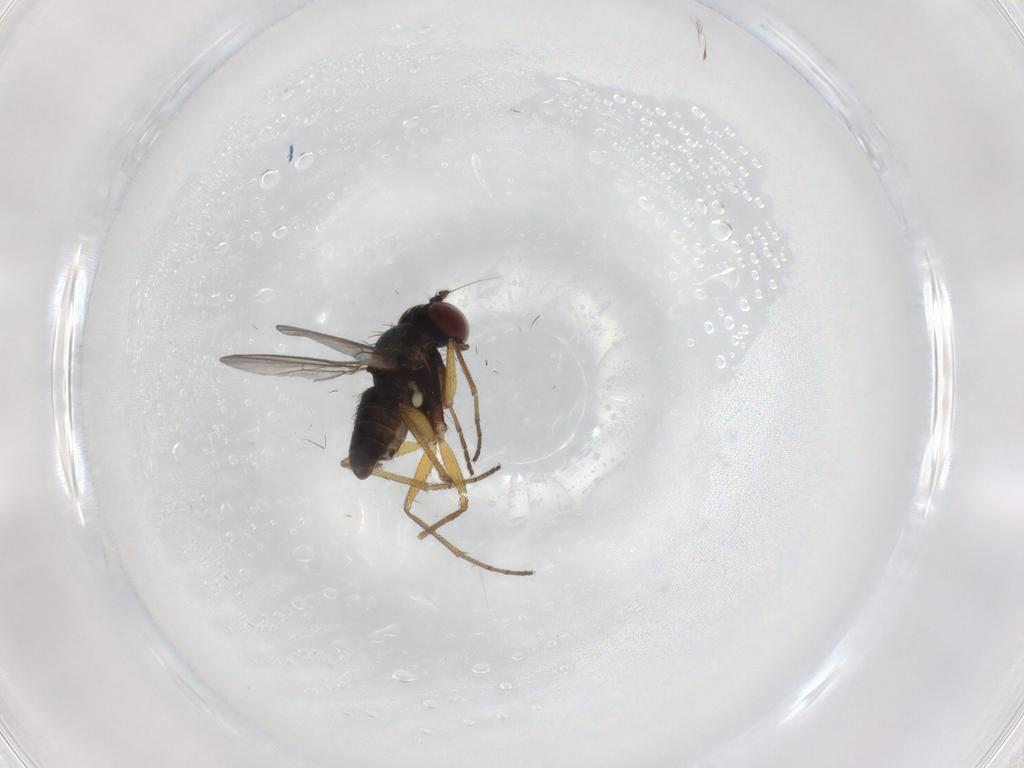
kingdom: Animalia
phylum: Arthropoda
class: Insecta
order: Diptera
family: Dolichopodidae
